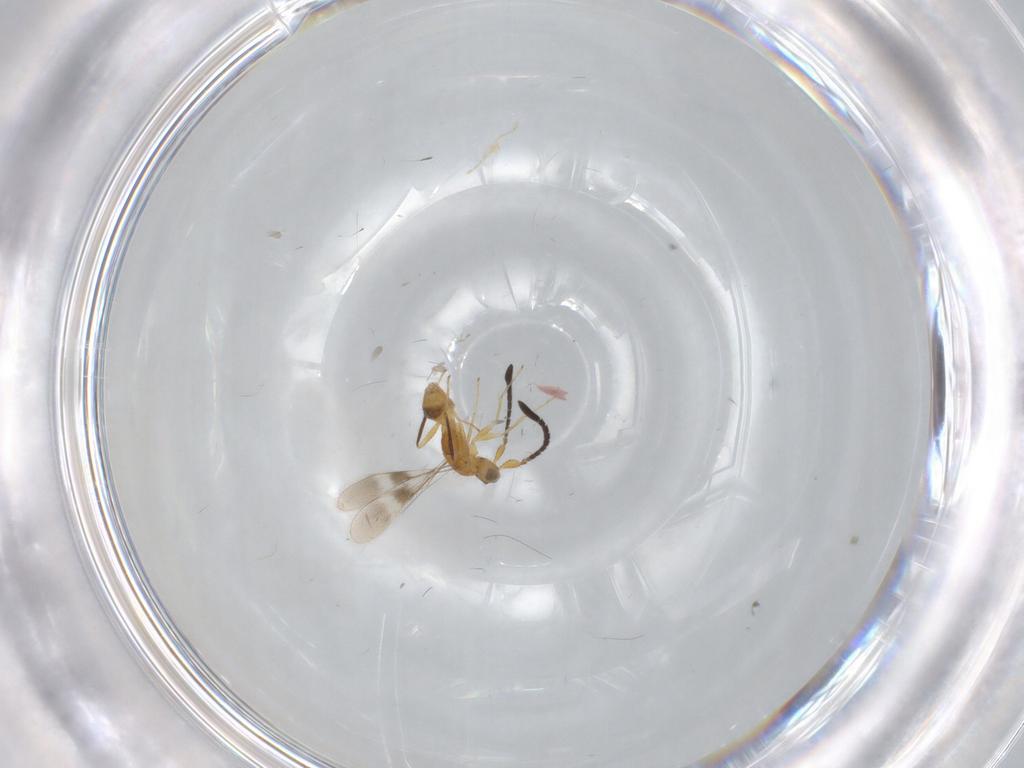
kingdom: Animalia
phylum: Arthropoda
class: Insecta
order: Hymenoptera
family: Mymaridae
